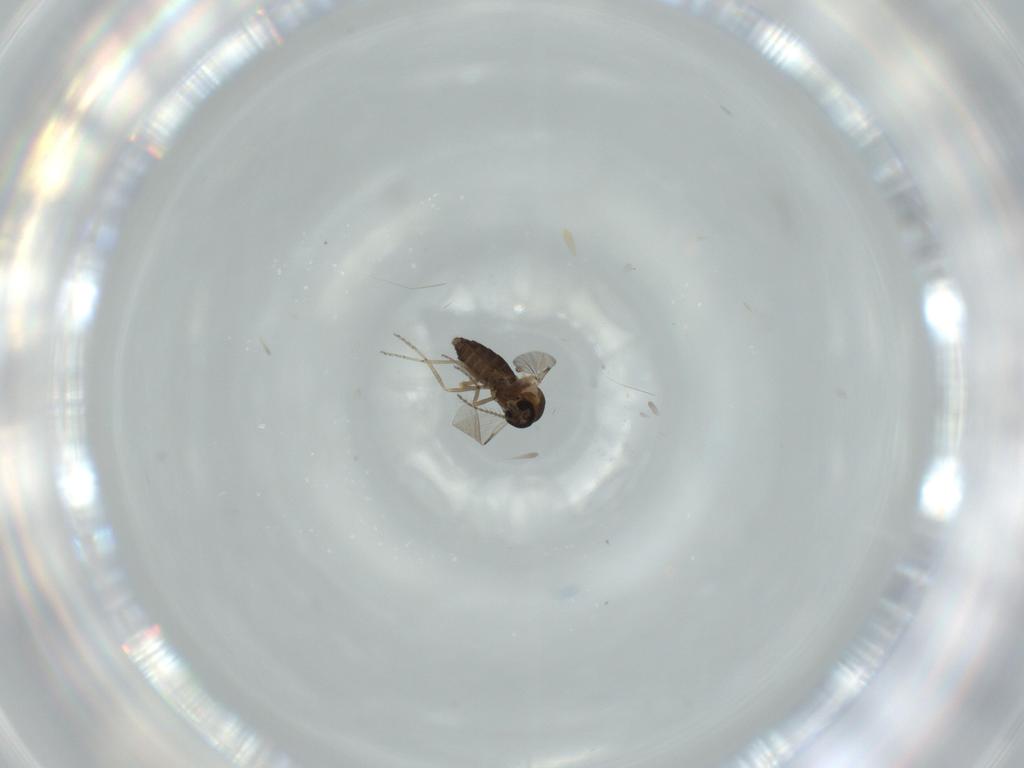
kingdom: Animalia
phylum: Arthropoda
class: Insecta
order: Diptera
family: Ceratopogonidae
